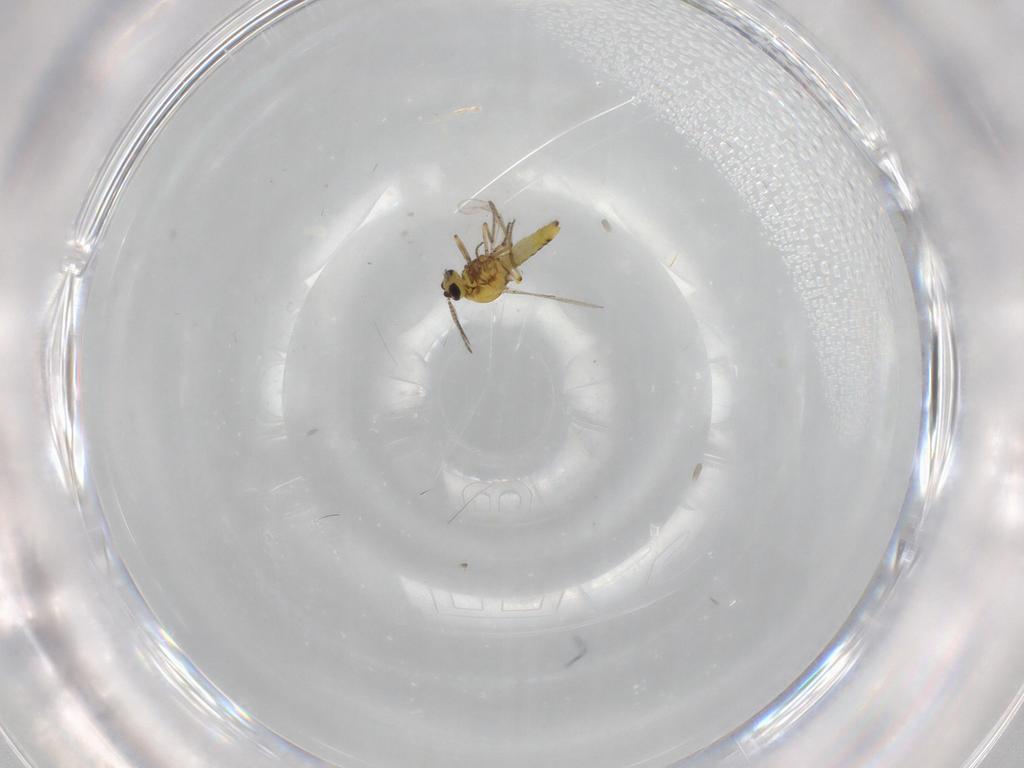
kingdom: Animalia
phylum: Arthropoda
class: Insecta
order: Diptera
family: Ceratopogonidae
